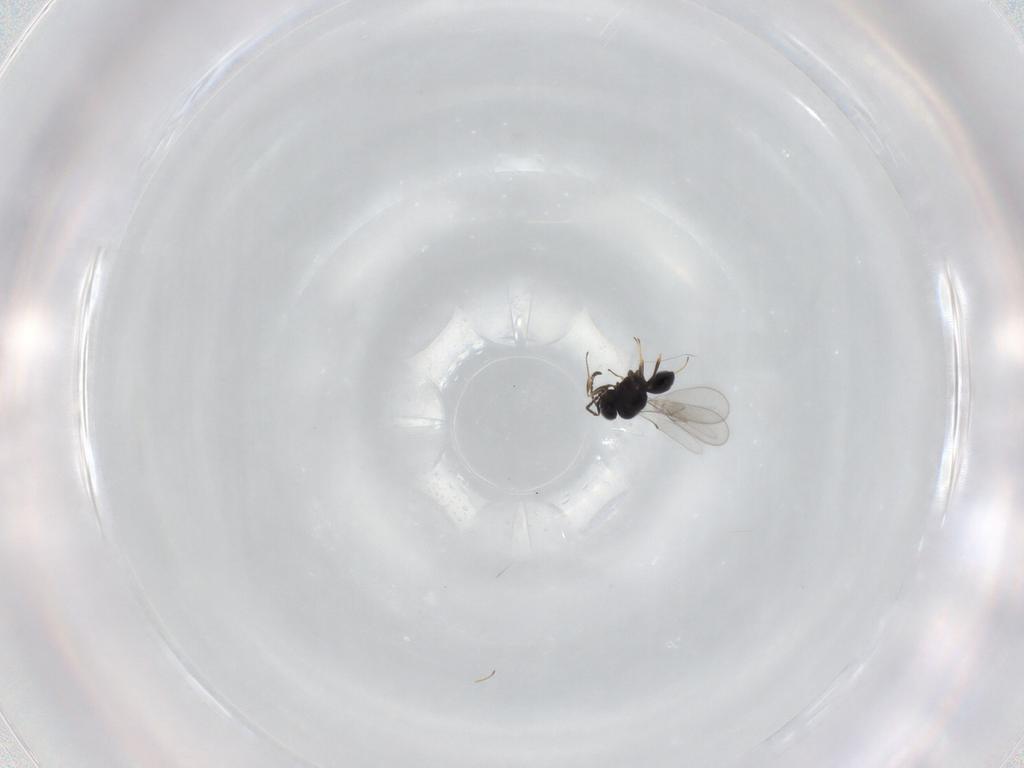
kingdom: Animalia
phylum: Arthropoda
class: Insecta
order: Hymenoptera
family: Scelionidae
